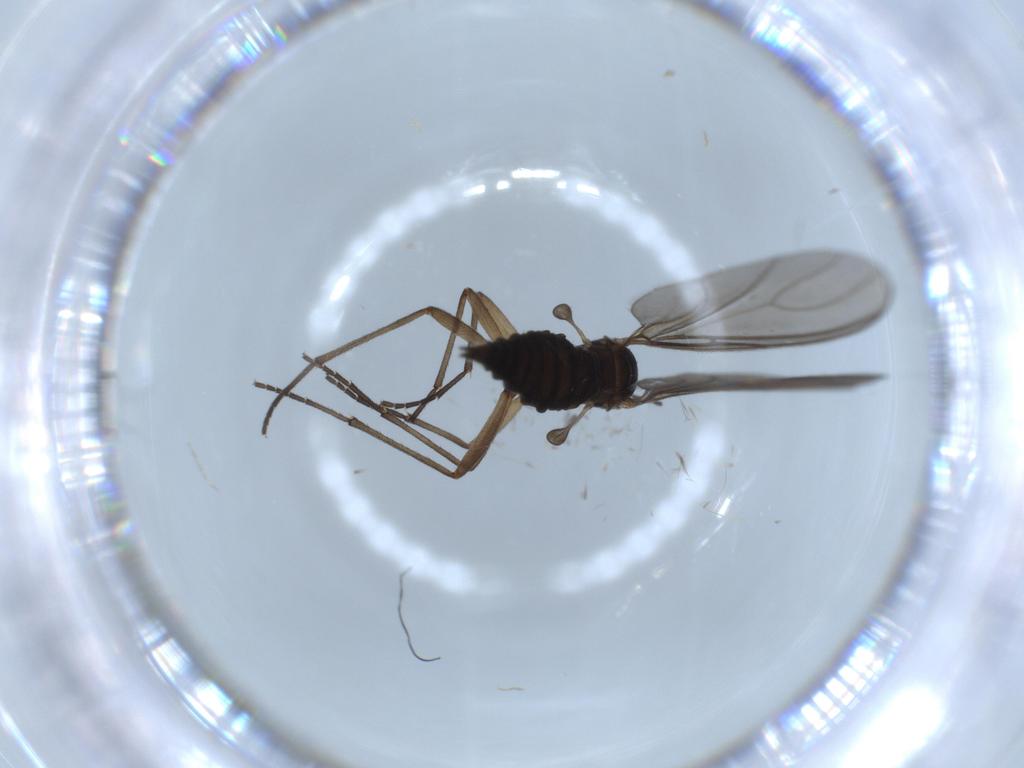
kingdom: Animalia
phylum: Arthropoda
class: Insecta
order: Diptera
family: Sciaridae
